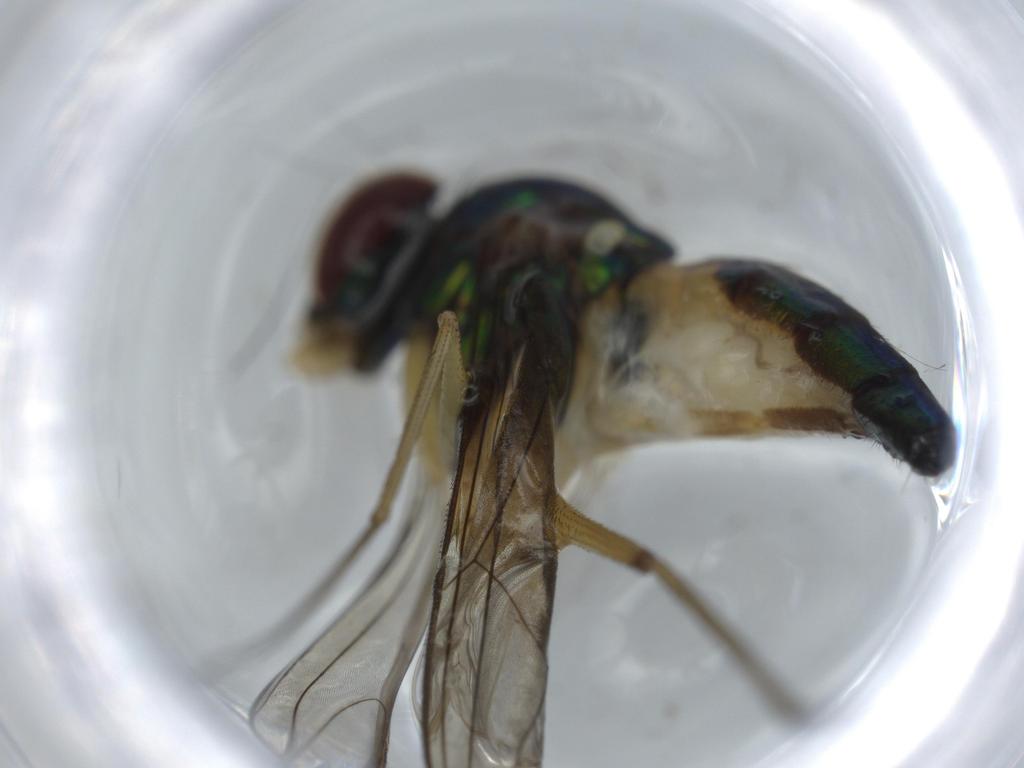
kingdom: Animalia
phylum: Arthropoda
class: Insecta
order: Diptera
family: Dolichopodidae
